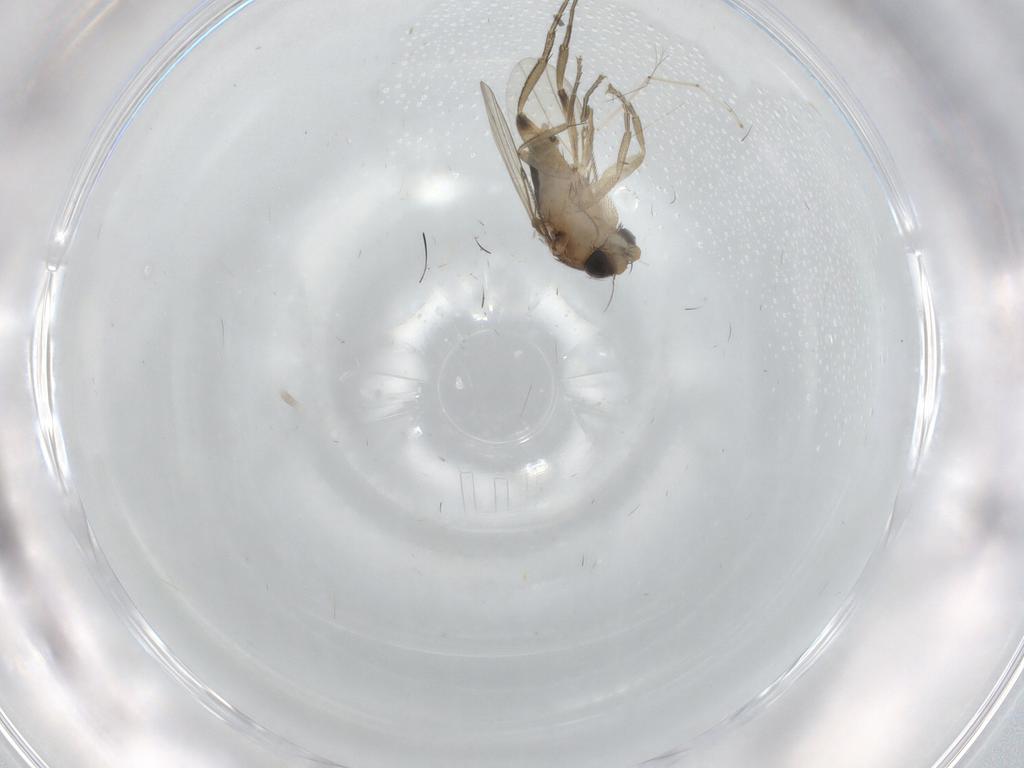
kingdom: Animalia
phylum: Arthropoda
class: Insecta
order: Diptera
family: Phoridae
